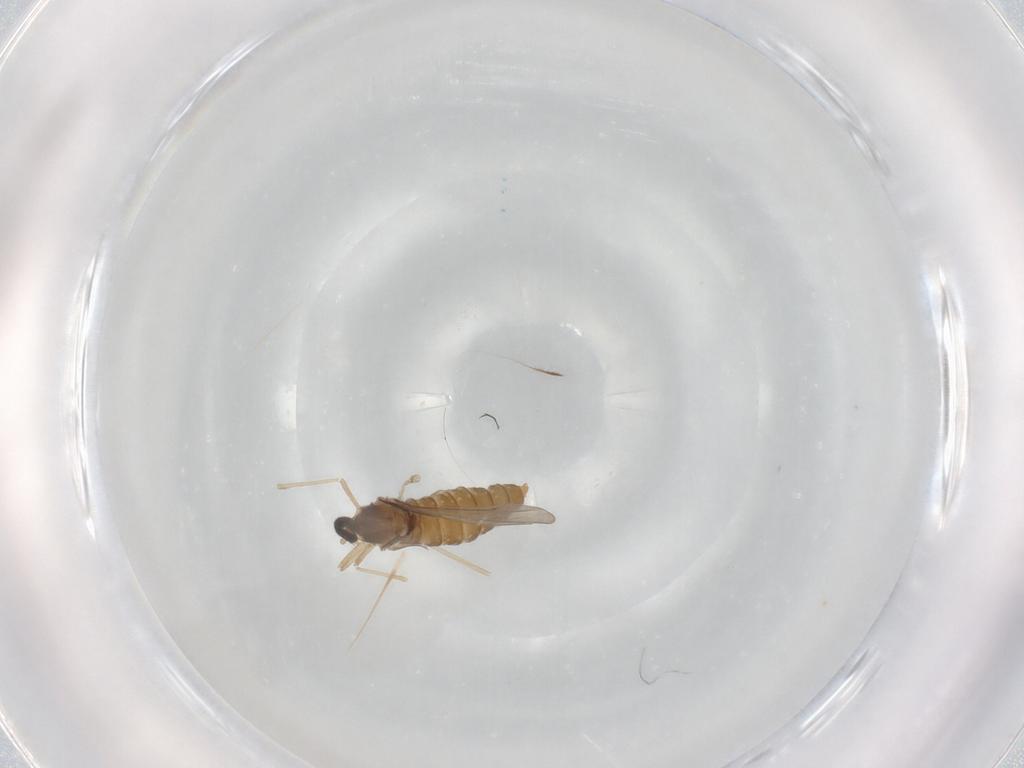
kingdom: Animalia
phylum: Arthropoda
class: Insecta
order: Diptera
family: Cecidomyiidae
